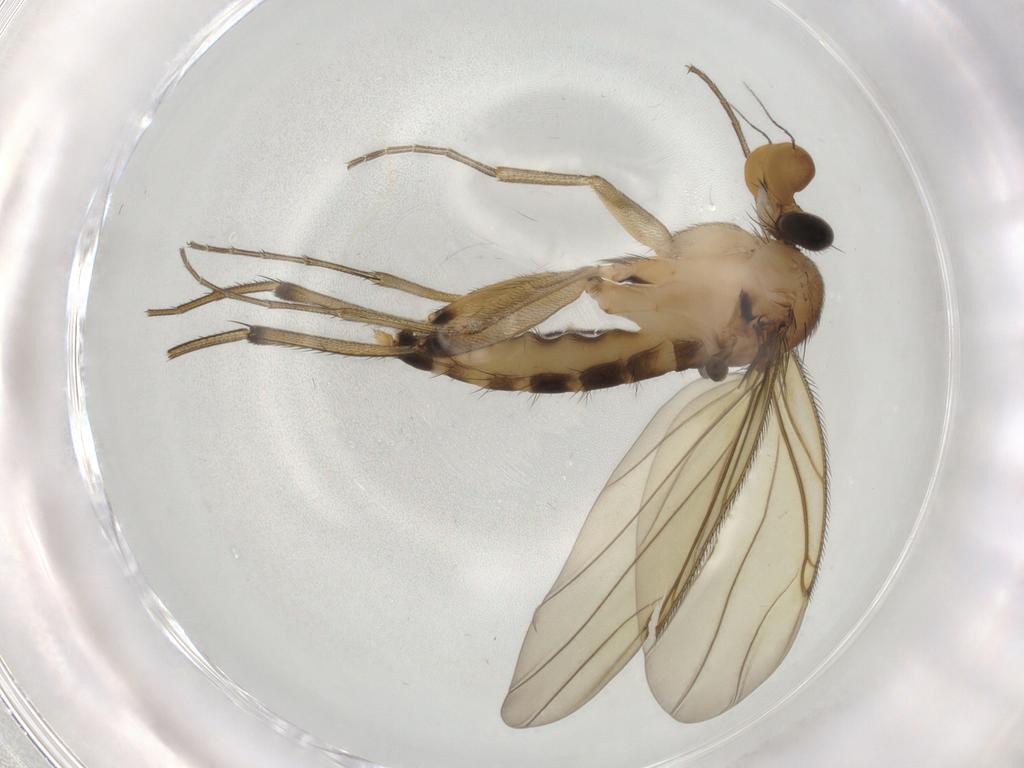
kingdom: Animalia
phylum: Arthropoda
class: Insecta
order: Diptera
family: Phoridae
